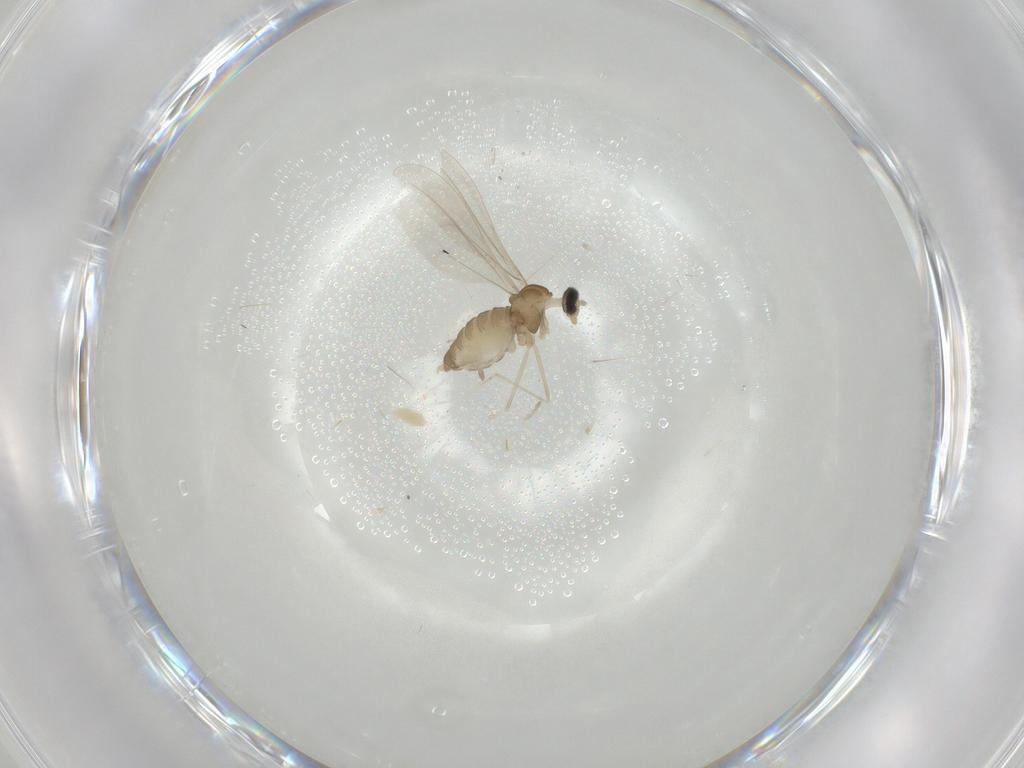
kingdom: Animalia
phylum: Arthropoda
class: Insecta
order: Diptera
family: Cecidomyiidae
